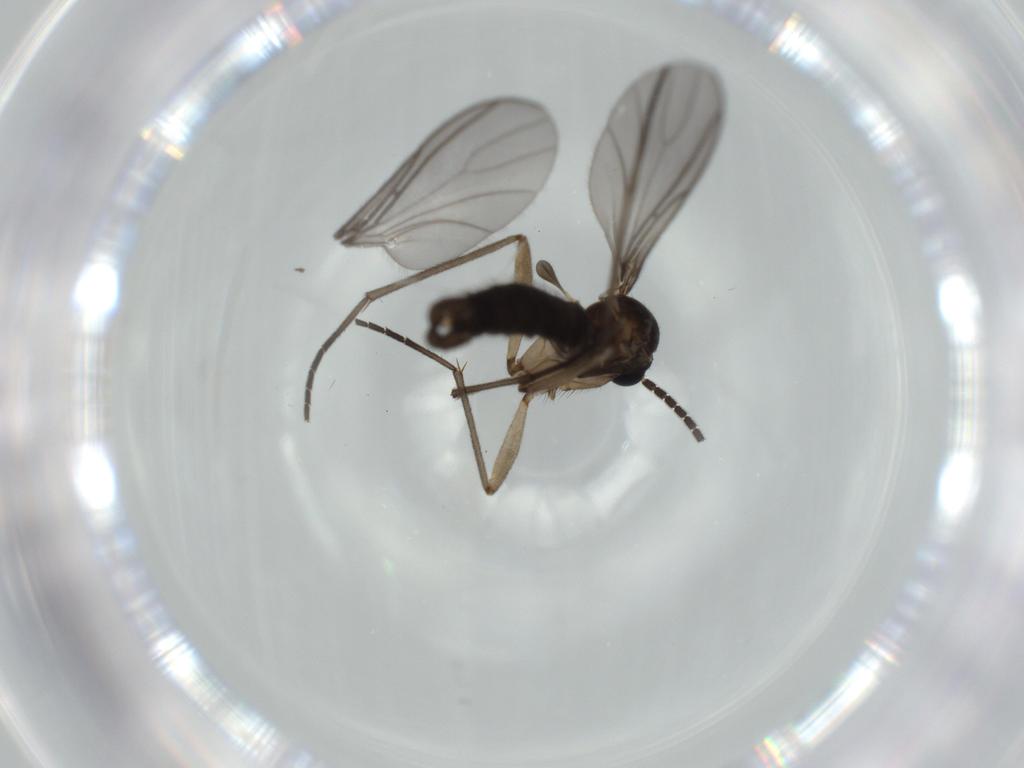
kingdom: Animalia
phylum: Arthropoda
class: Insecta
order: Diptera
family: Sciaridae
